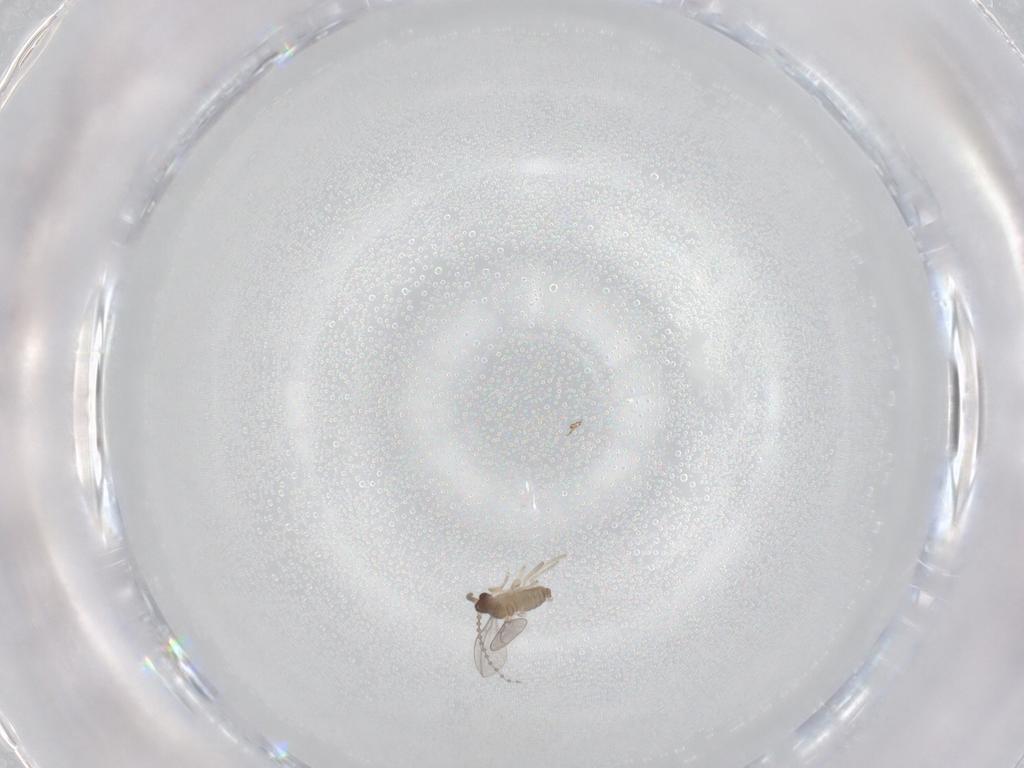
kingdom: Animalia
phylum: Arthropoda
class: Insecta
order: Diptera
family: Cecidomyiidae
